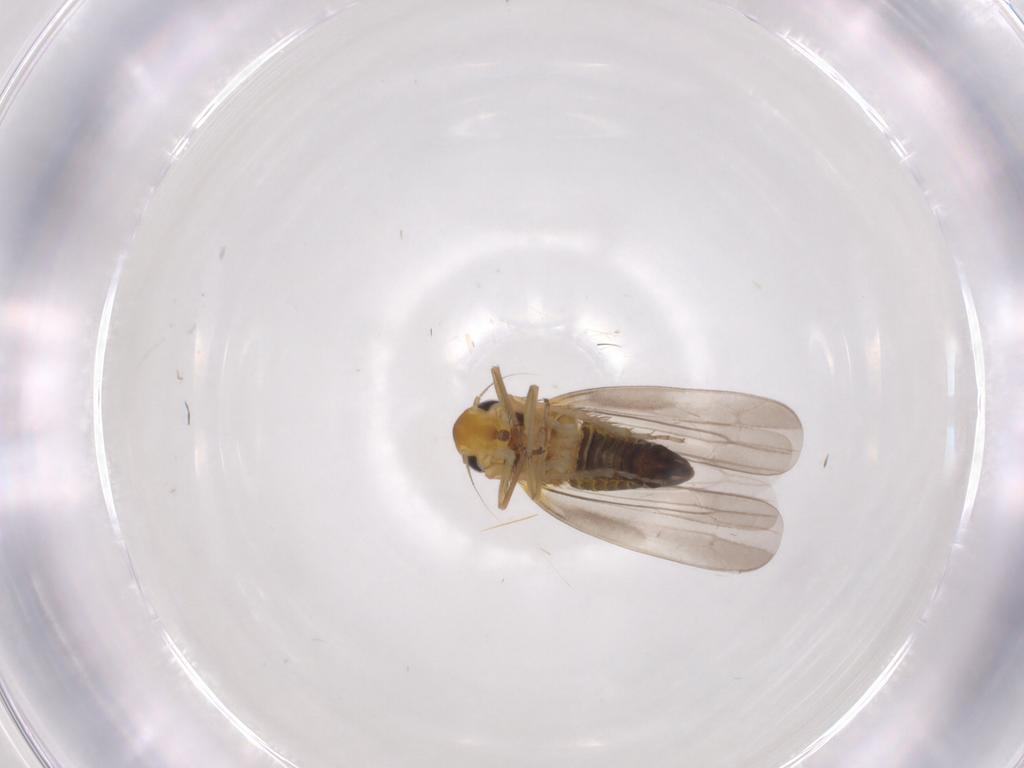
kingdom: Animalia
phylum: Arthropoda
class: Insecta
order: Hemiptera
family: Cicadellidae
